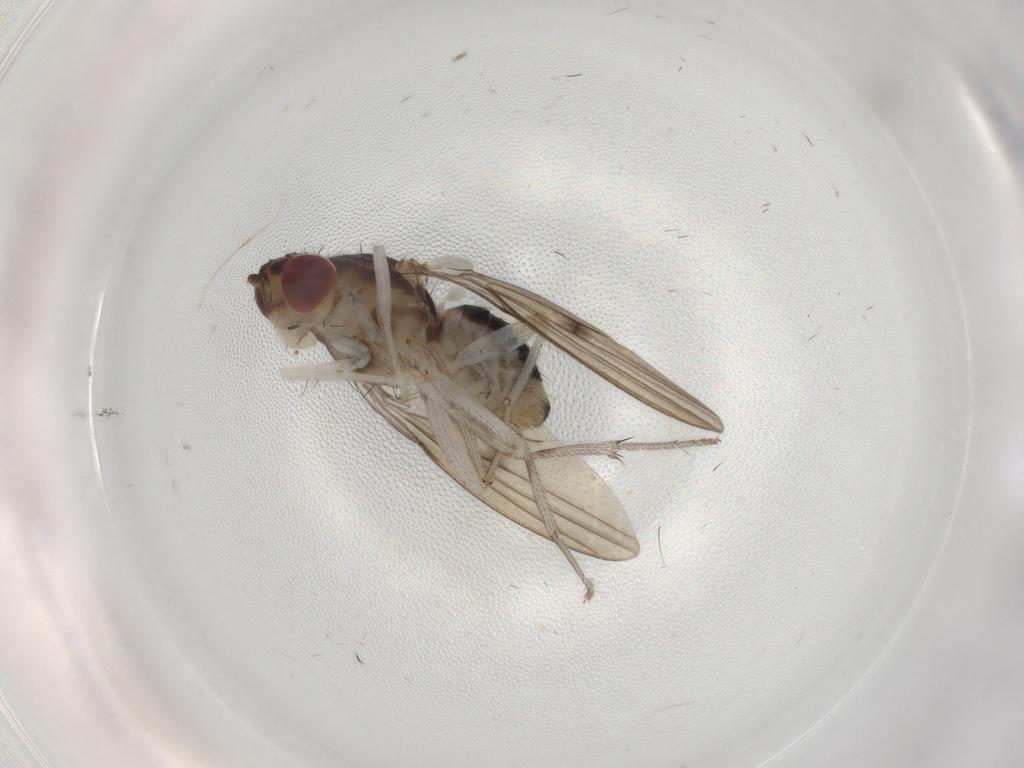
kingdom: Animalia
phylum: Arthropoda
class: Insecta
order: Diptera
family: Lauxaniidae
